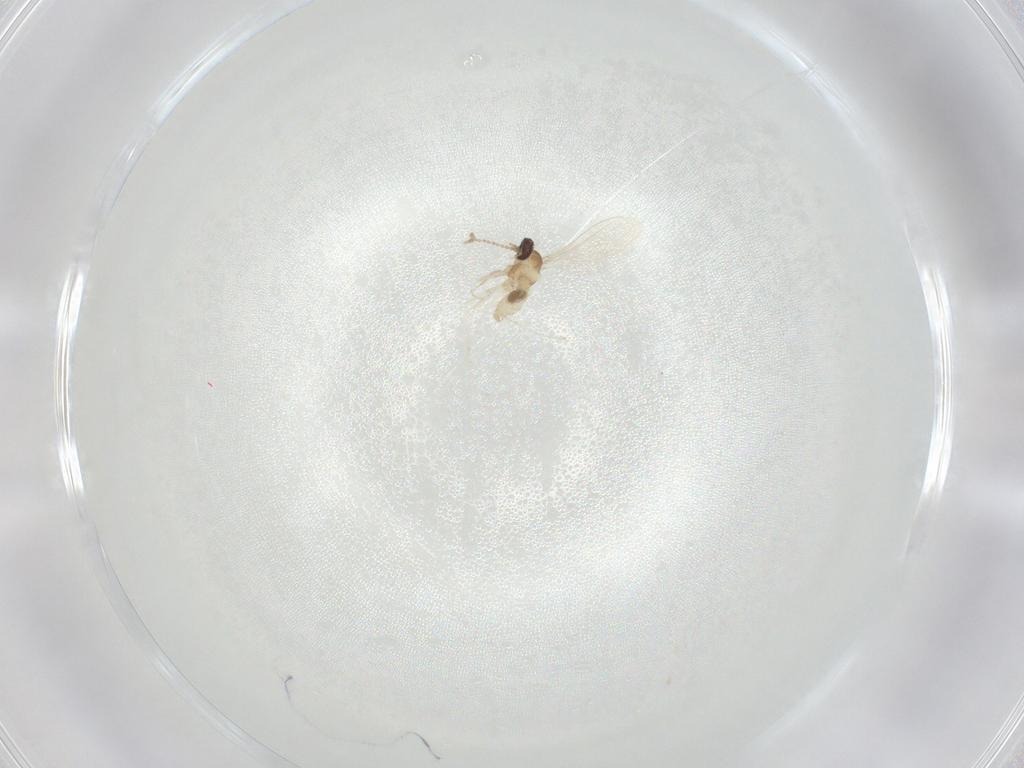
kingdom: Animalia
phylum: Arthropoda
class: Insecta
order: Diptera
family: Cecidomyiidae
